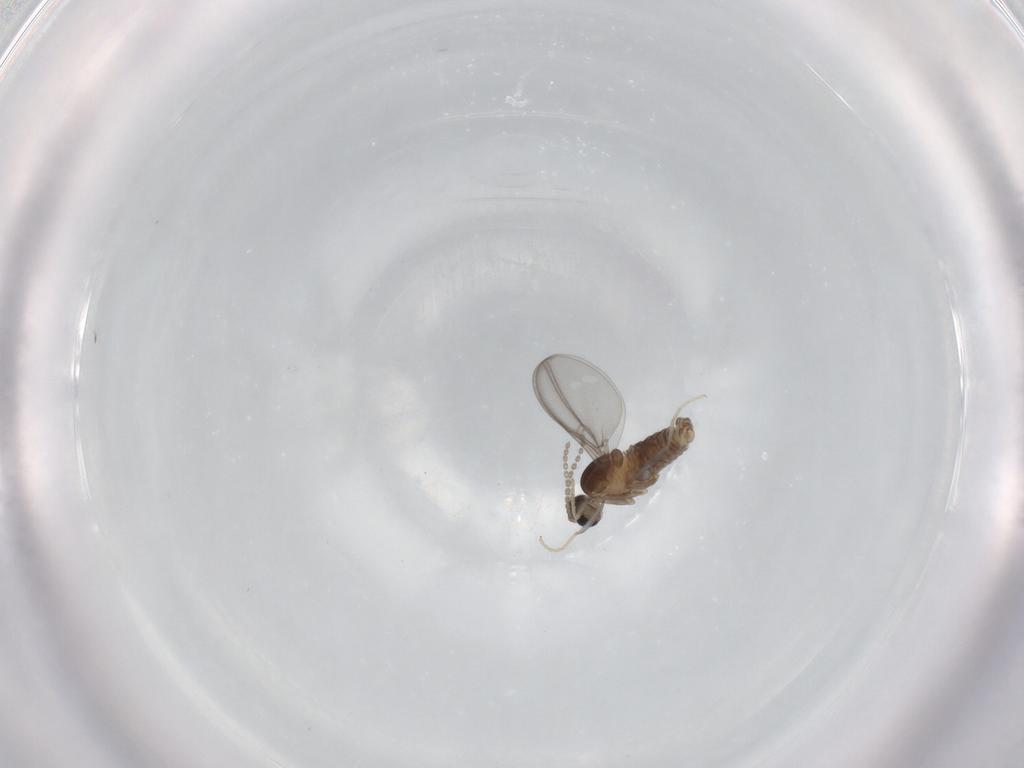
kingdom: Animalia
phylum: Arthropoda
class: Insecta
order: Diptera
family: Cecidomyiidae
